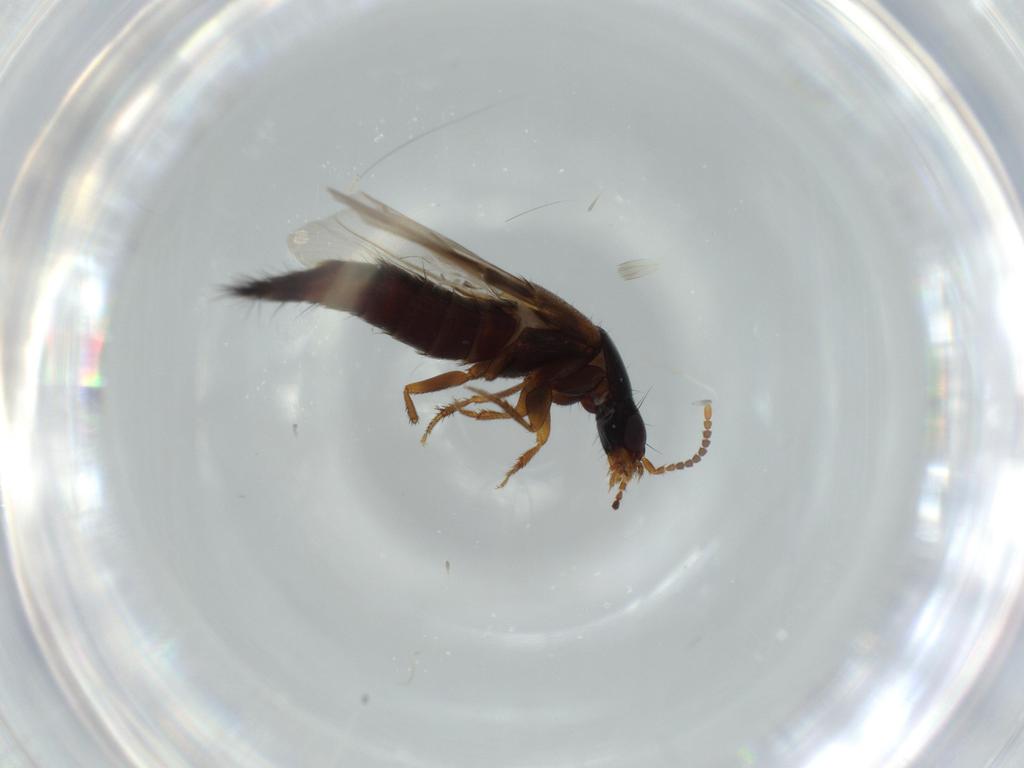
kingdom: Animalia
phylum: Arthropoda
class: Insecta
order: Coleoptera
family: Staphylinidae
